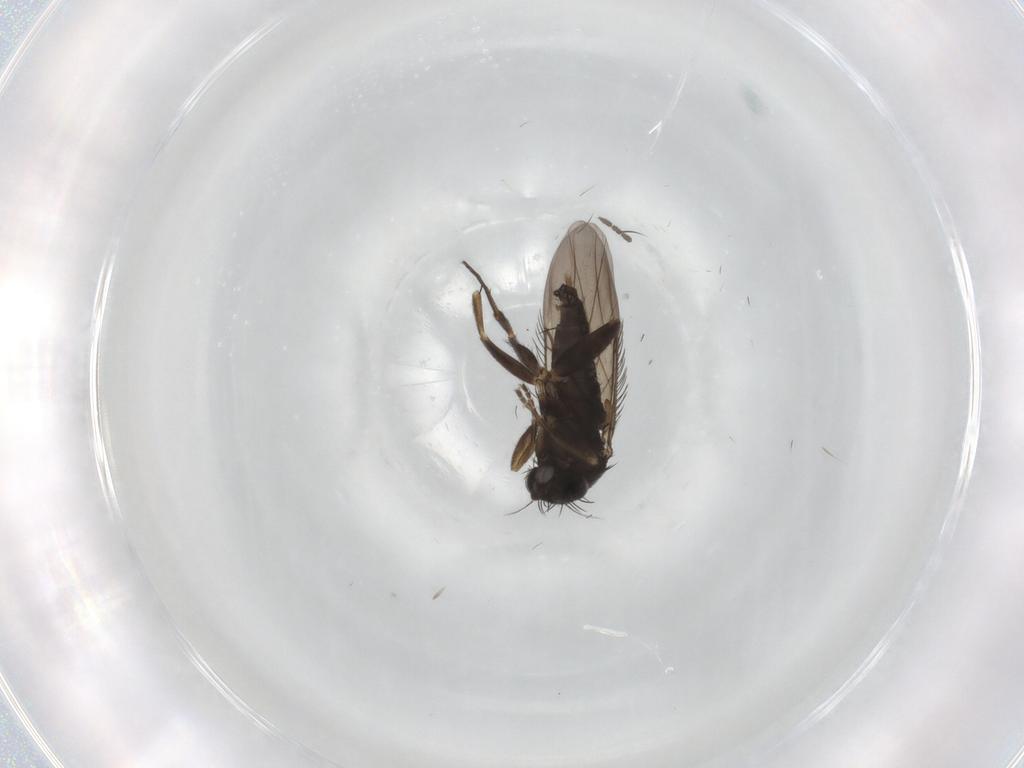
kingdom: Animalia
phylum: Arthropoda
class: Insecta
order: Diptera
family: Phoridae
